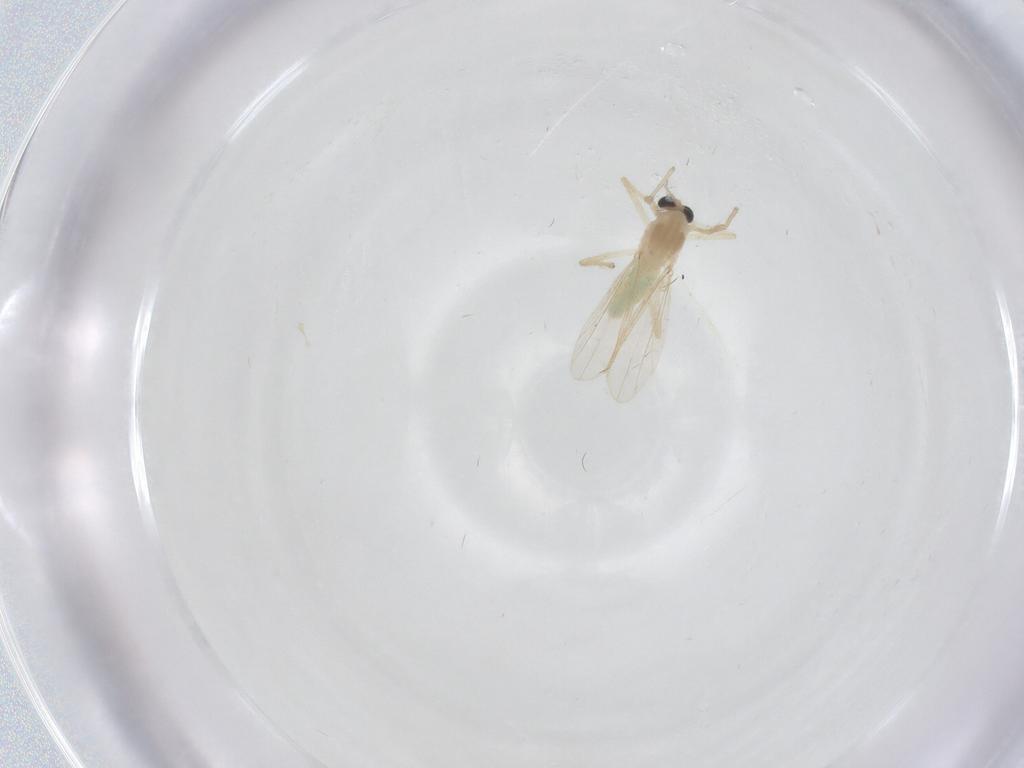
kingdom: Animalia
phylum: Arthropoda
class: Insecta
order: Diptera
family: Chironomidae
